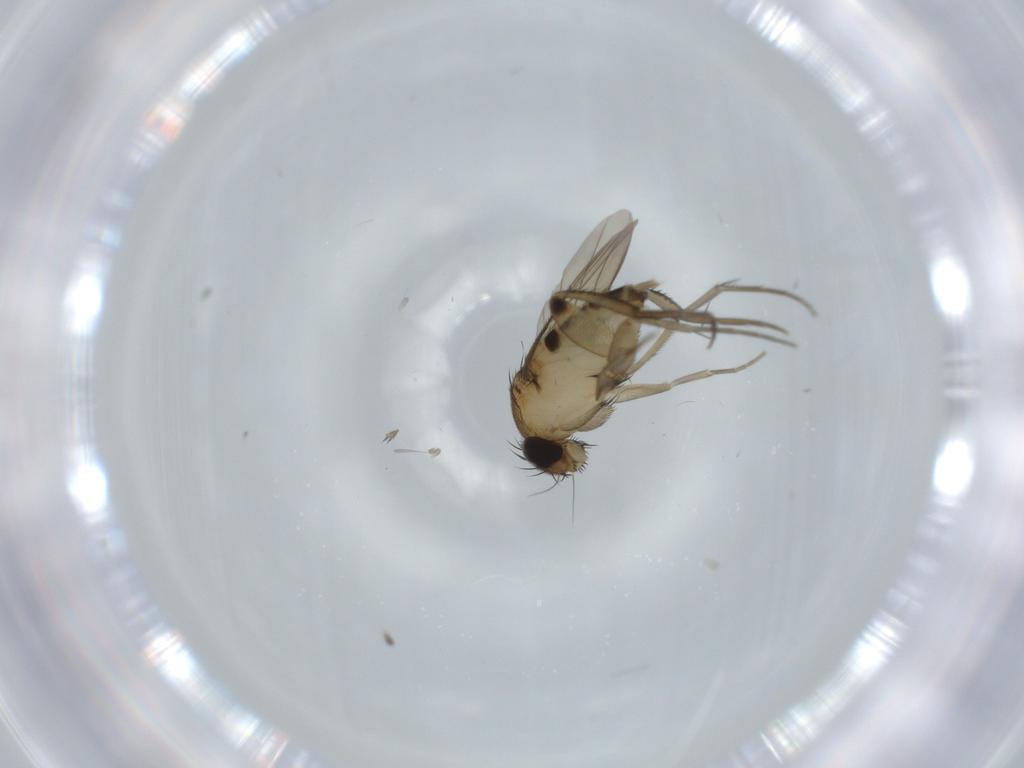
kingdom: Animalia
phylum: Arthropoda
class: Insecta
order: Diptera
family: Phoridae
